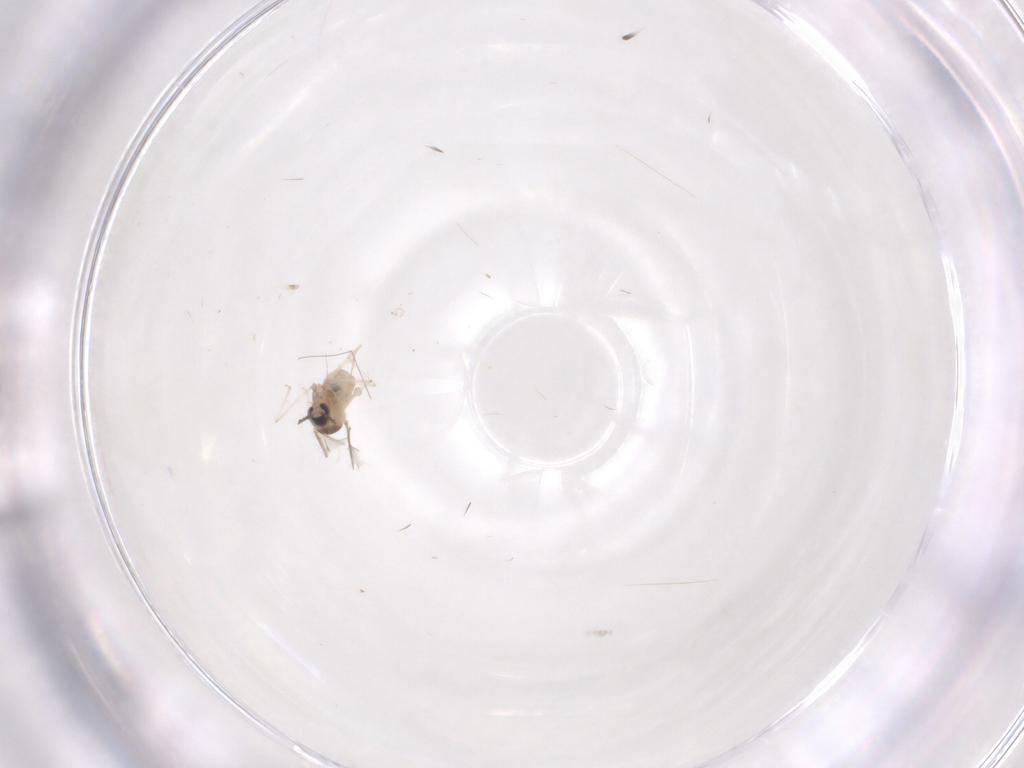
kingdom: Animalia
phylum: Arthropoda
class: Insecta
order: Diptera
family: Cecidomyiidae
